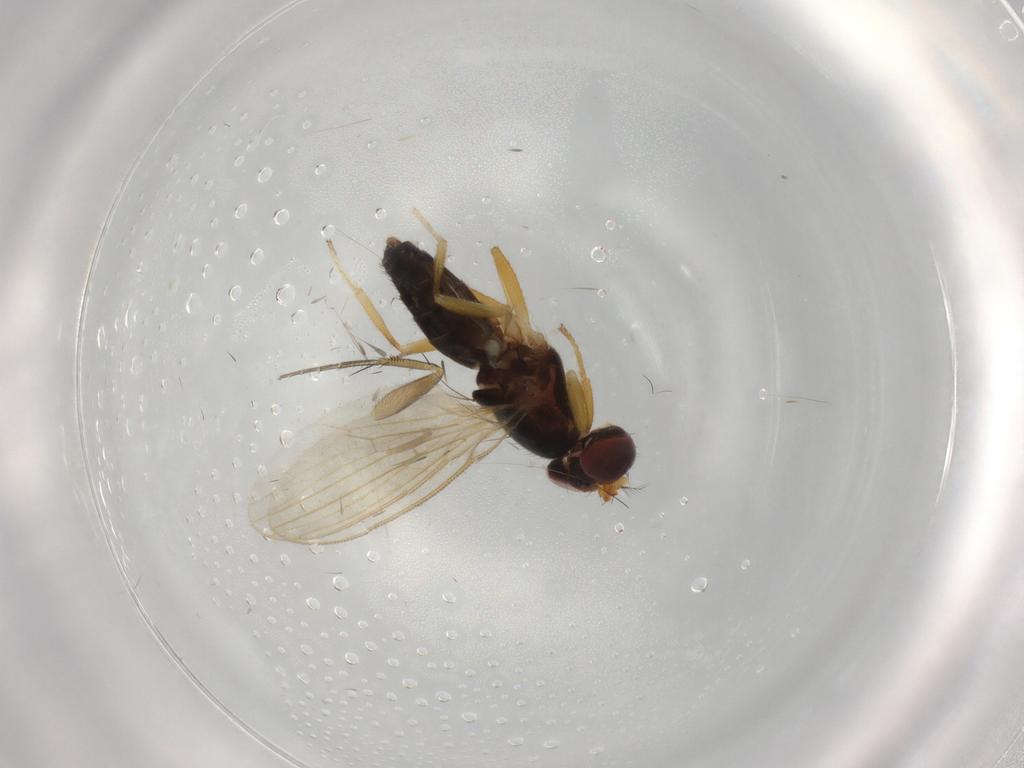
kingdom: Animalia
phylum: Arthropoda
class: Insecta
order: Diptera
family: Periscelididae
